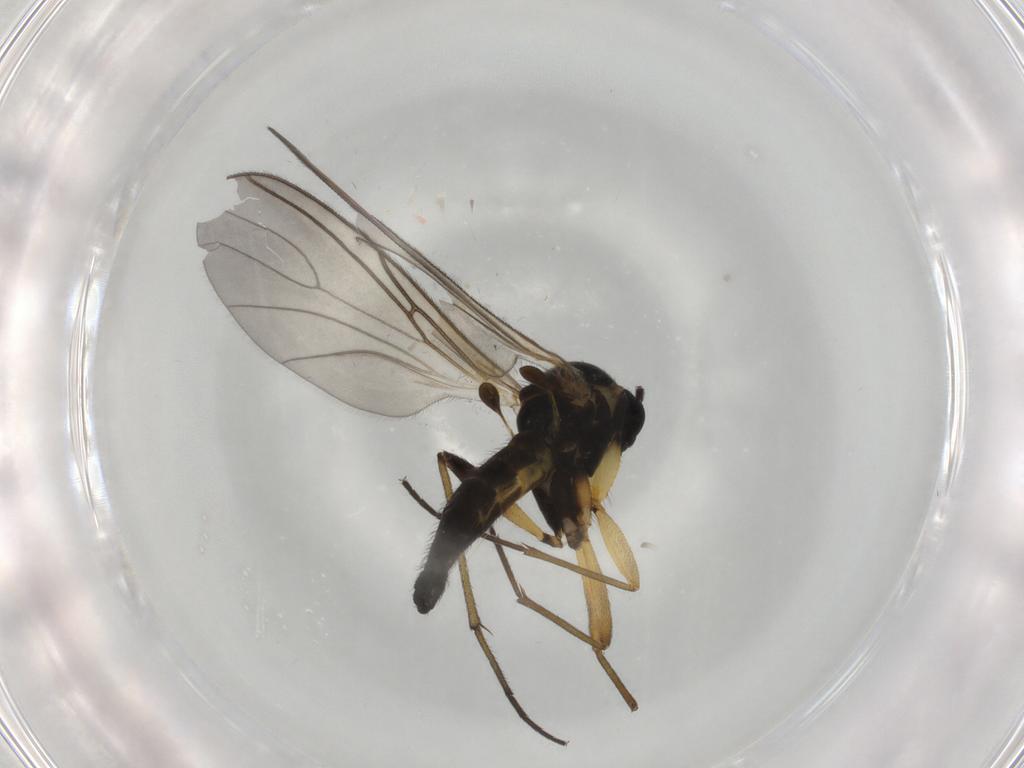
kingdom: Animalia
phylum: Arthropoda
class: Insecta
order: Diptera
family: Sciaridae
